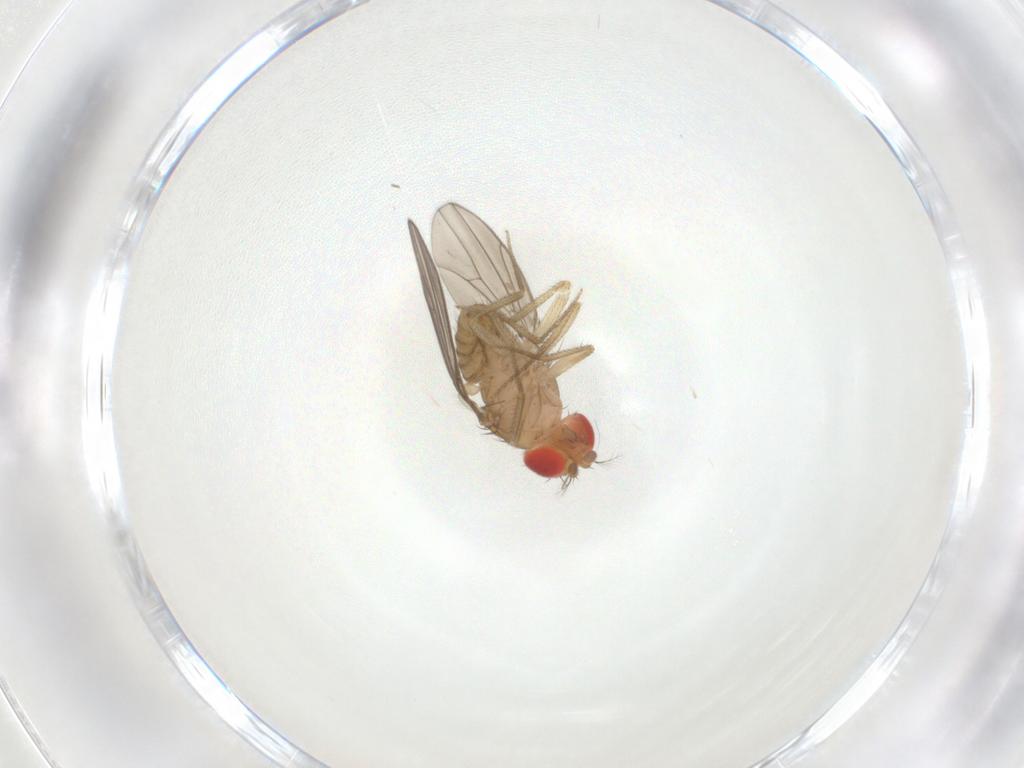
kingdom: Animalia
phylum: Arthropoda
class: Insecta
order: Diptera
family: Drosophilidae
